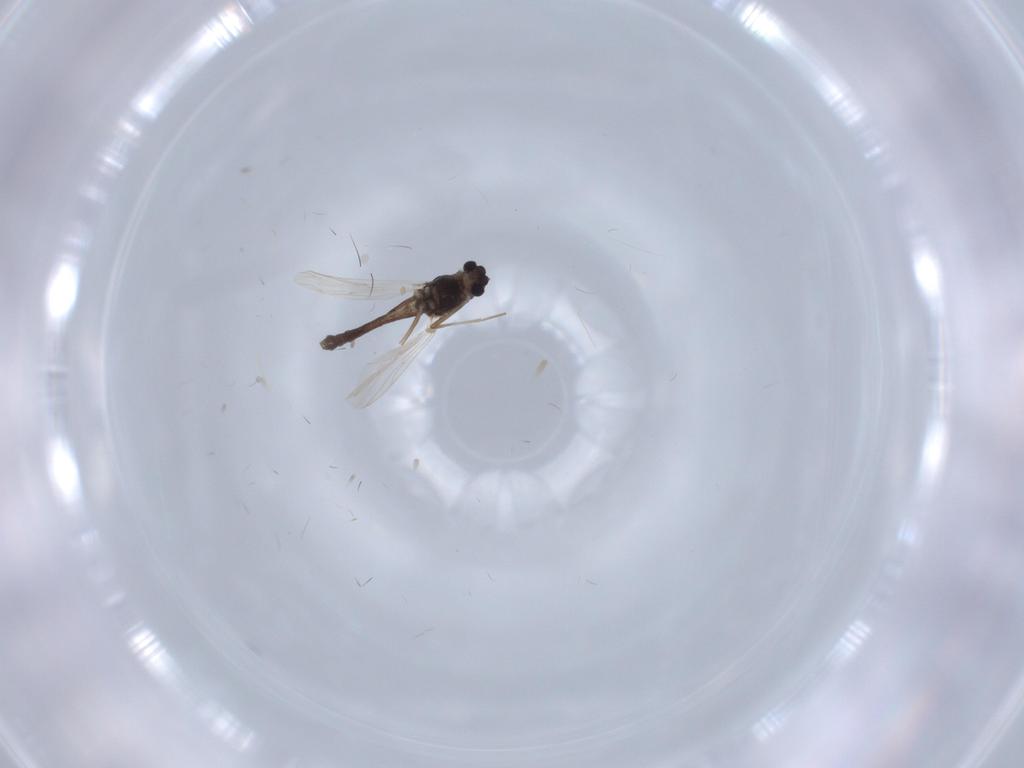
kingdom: Animalia
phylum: Arthropoda
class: Insecta
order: Diptera
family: Chironomidae
